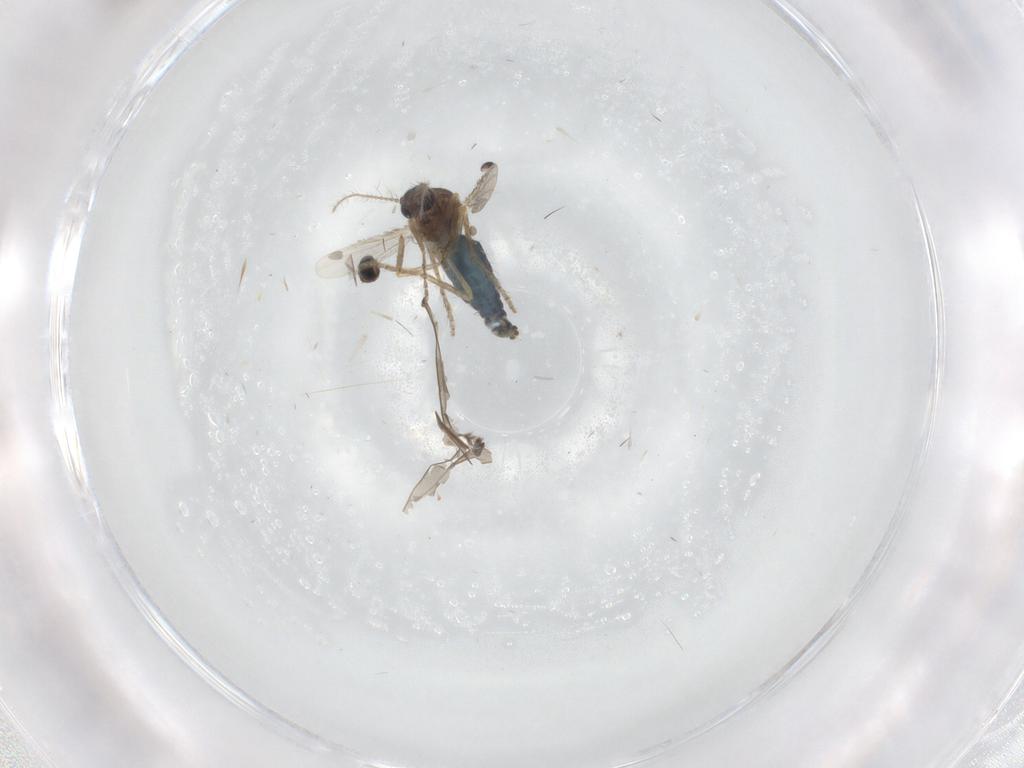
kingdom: Animalia
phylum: Arthropoda
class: Insecta
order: Diptera
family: Ceratopogonidae
